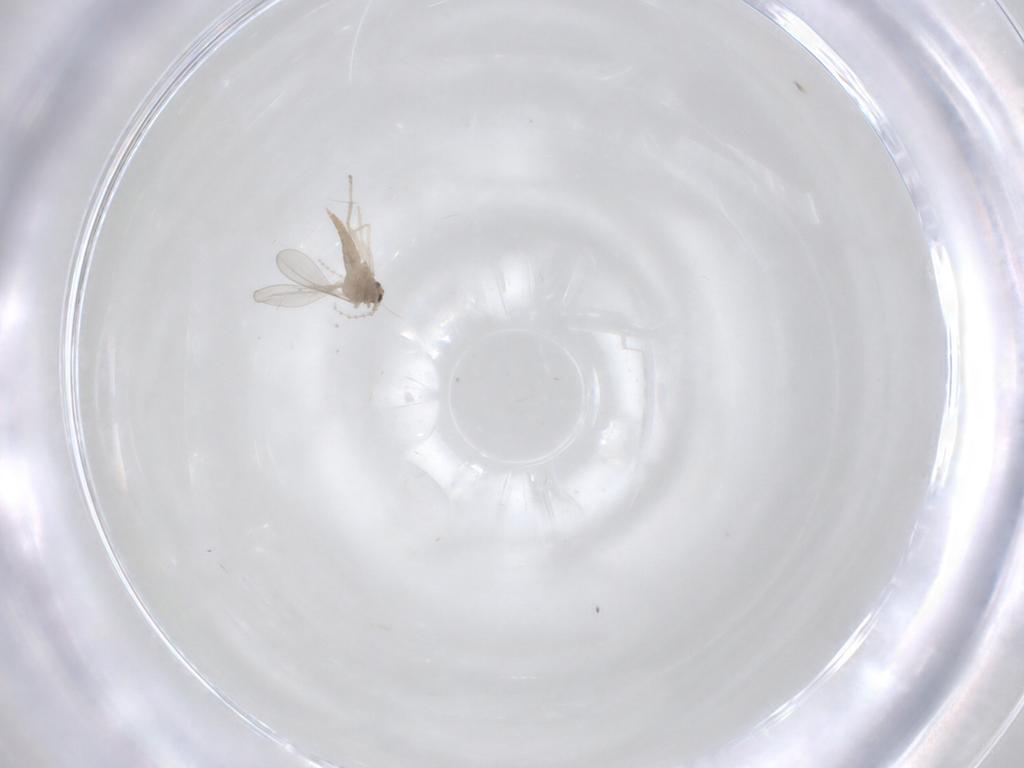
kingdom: Animalia
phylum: Arthropoda
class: Insecta
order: Diptera
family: Cecidomyiidae
